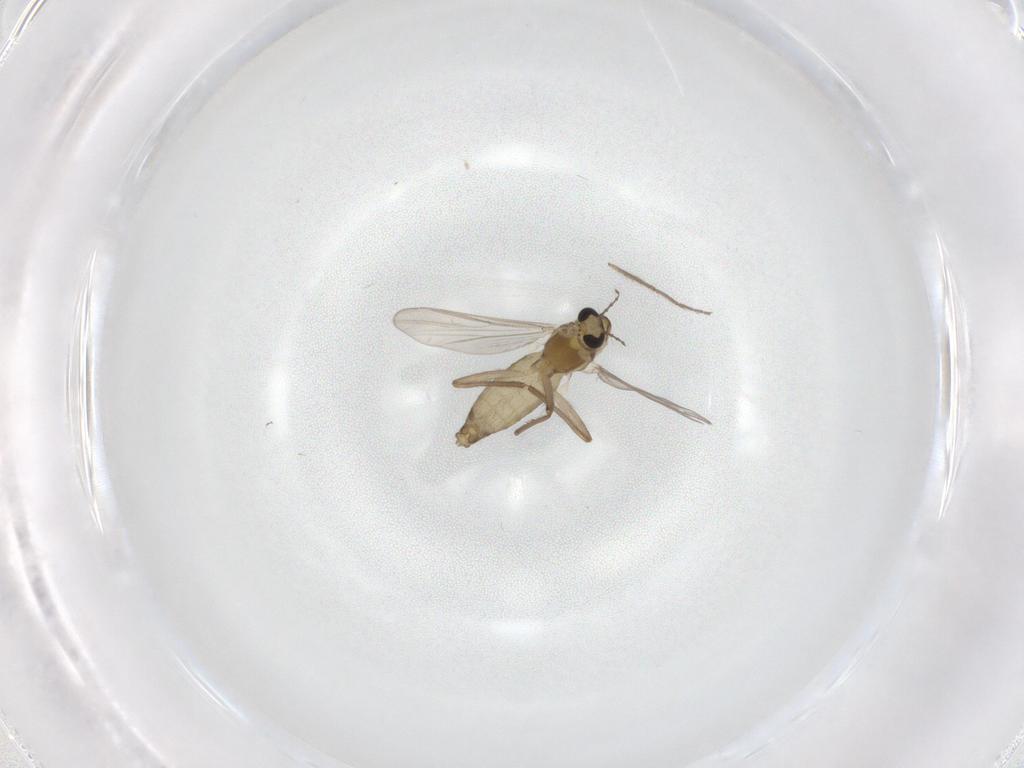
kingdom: Animalia
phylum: Arthropoda
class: Insecta
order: Diptera
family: Chironomidae
